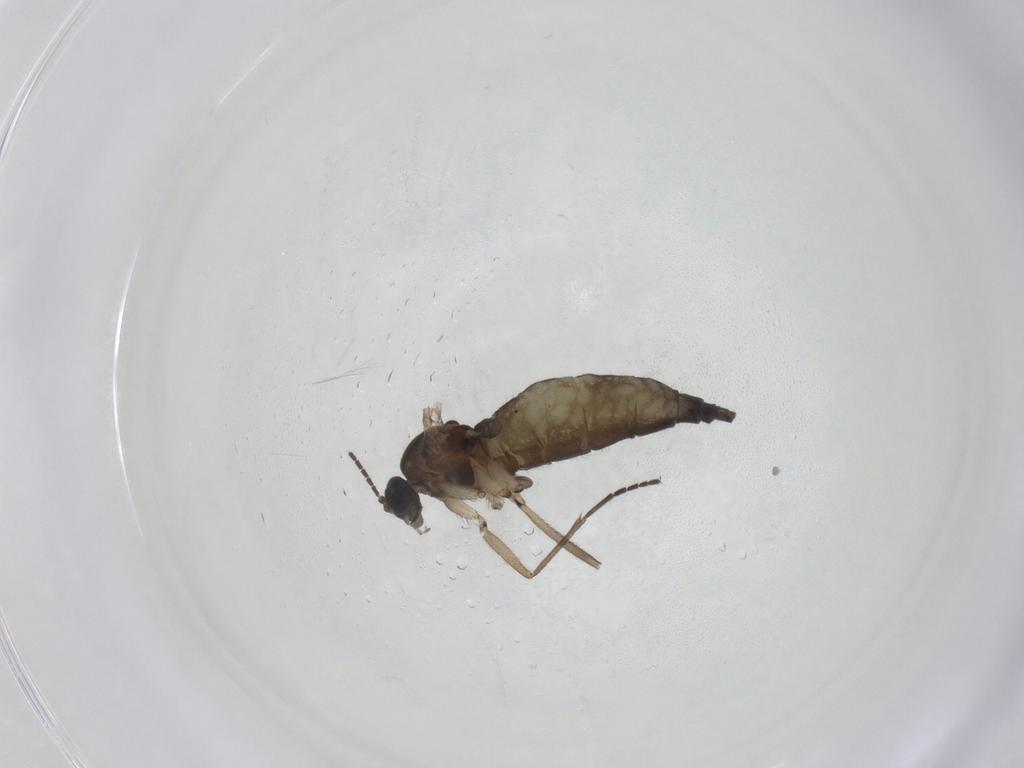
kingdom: Animalia
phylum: Arthropoda
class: Insecta
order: Diptera
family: Sciaridae
